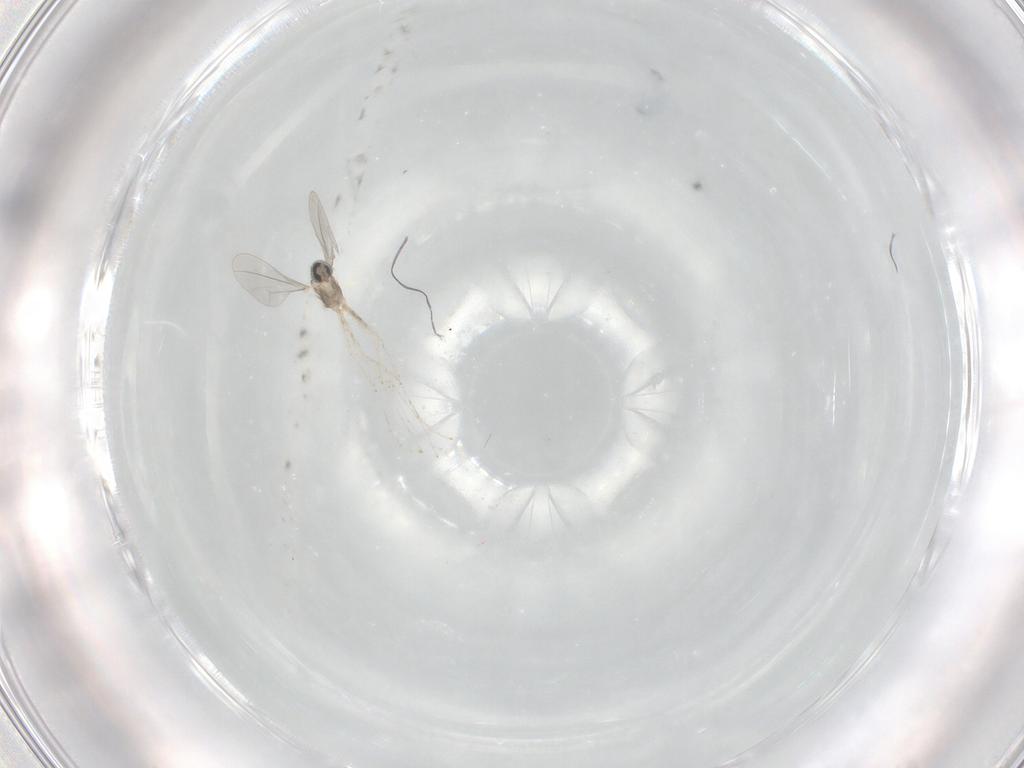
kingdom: Animalia
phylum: Arthropoda
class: Insecta
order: Diptera
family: Cecidomyiidae
